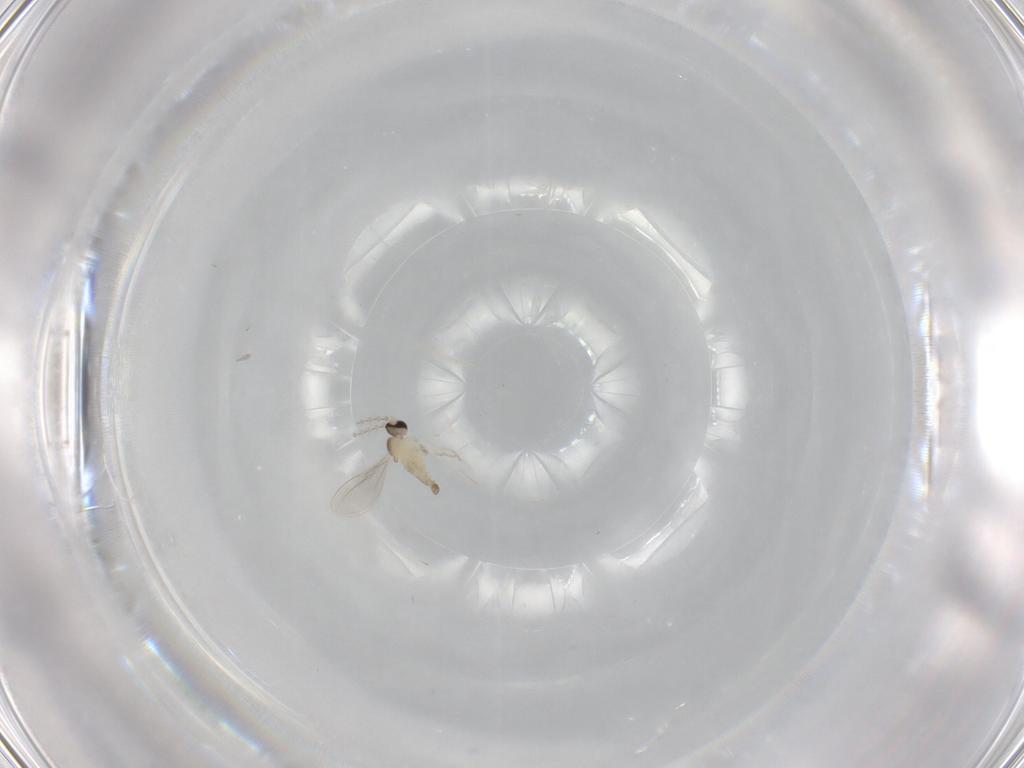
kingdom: Animalia
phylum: Arthropoda
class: Insecta
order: Diptera
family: Cecidomyiidae
